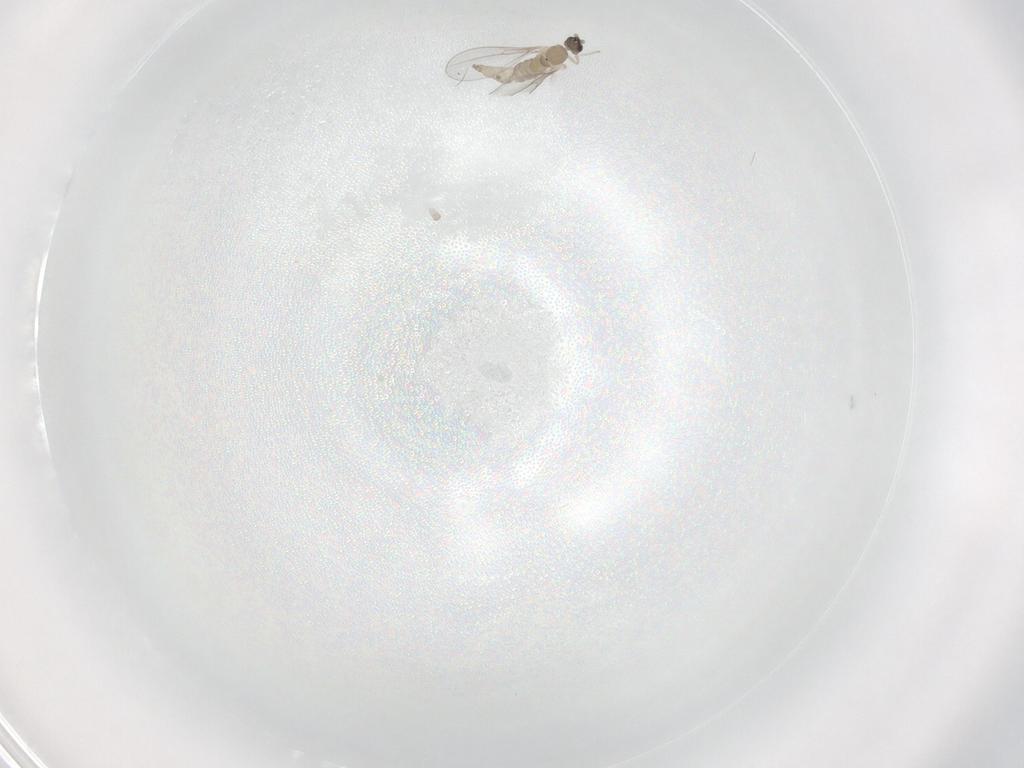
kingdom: Animalia
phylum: Arthropoda
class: Insecta
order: Diptera
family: Cecidomyiidae
